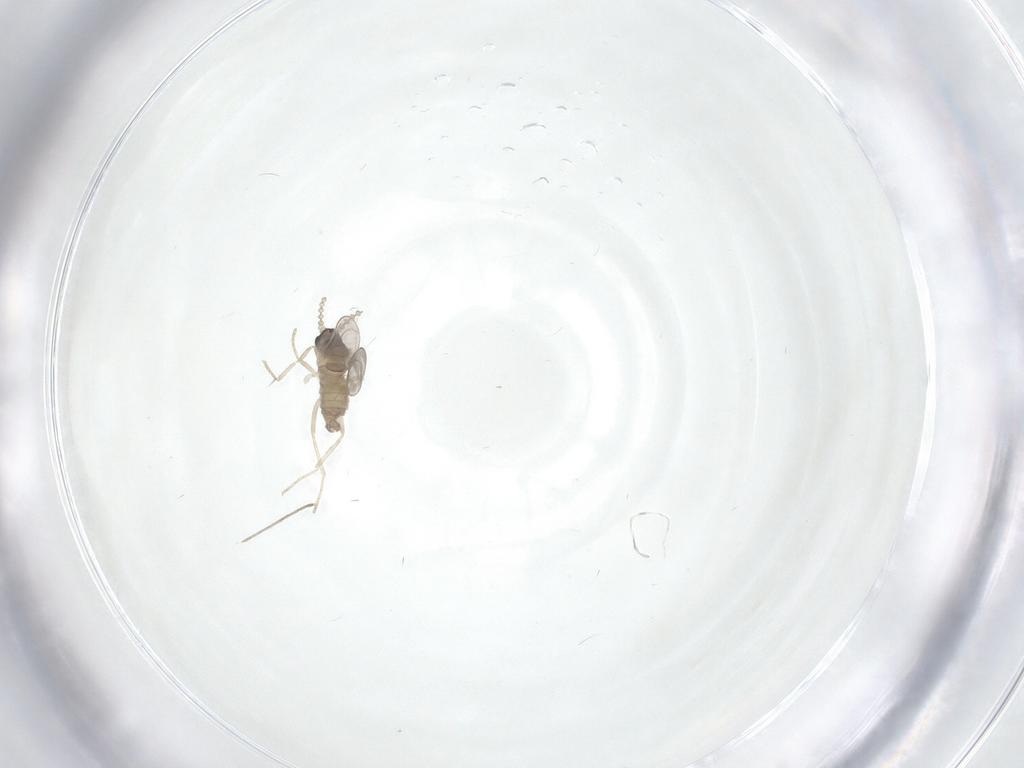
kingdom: Animalia
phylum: Arthropoda
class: Insecta
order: Diptera
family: Cecidomyiidae
